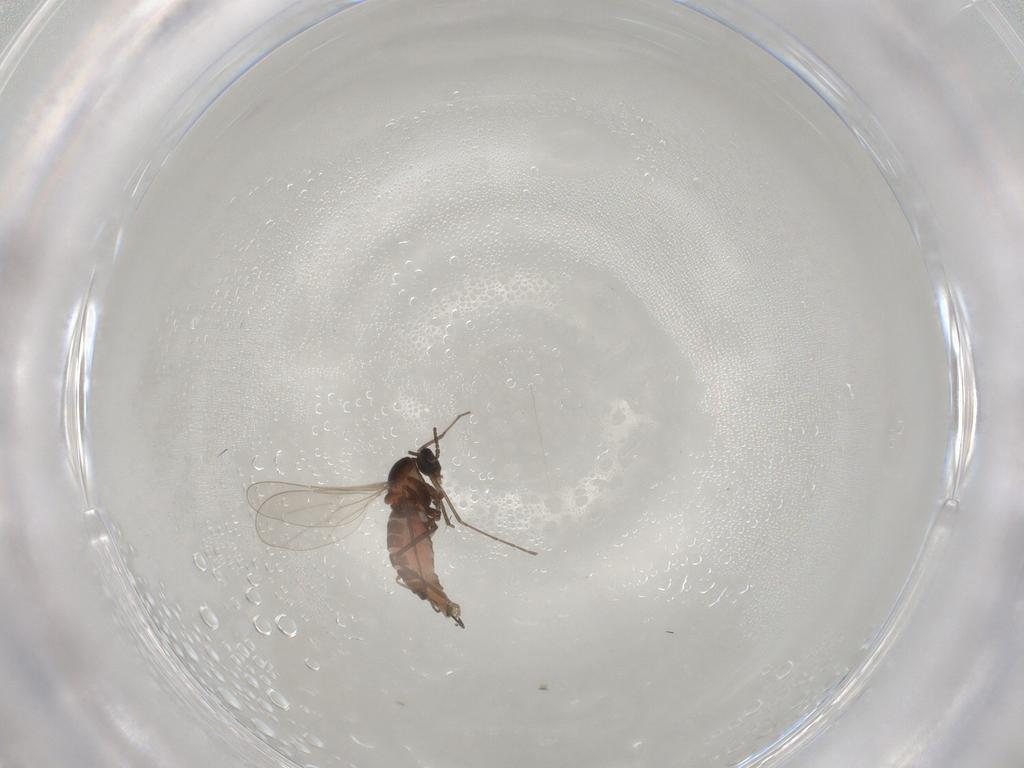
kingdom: Animalia
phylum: Arthropoda
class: Insecta
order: Diptera
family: Cecidomyiidae
